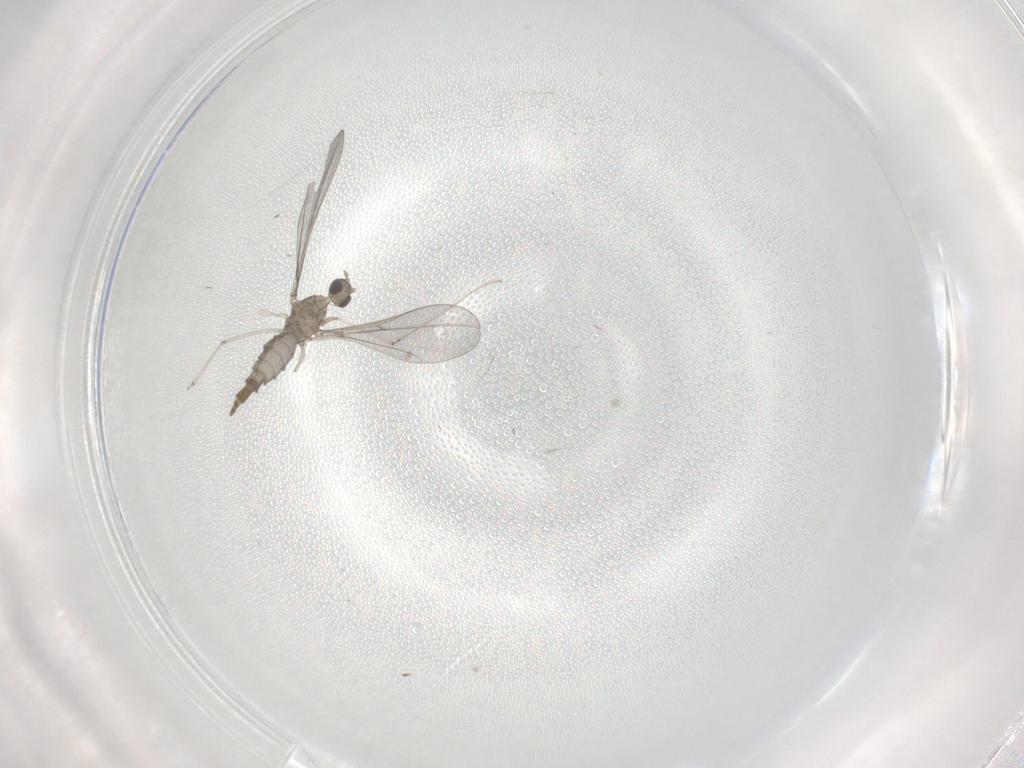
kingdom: Animalia
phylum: Arthropoda
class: Insecta
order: Diptera
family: Cecidomyiidae
